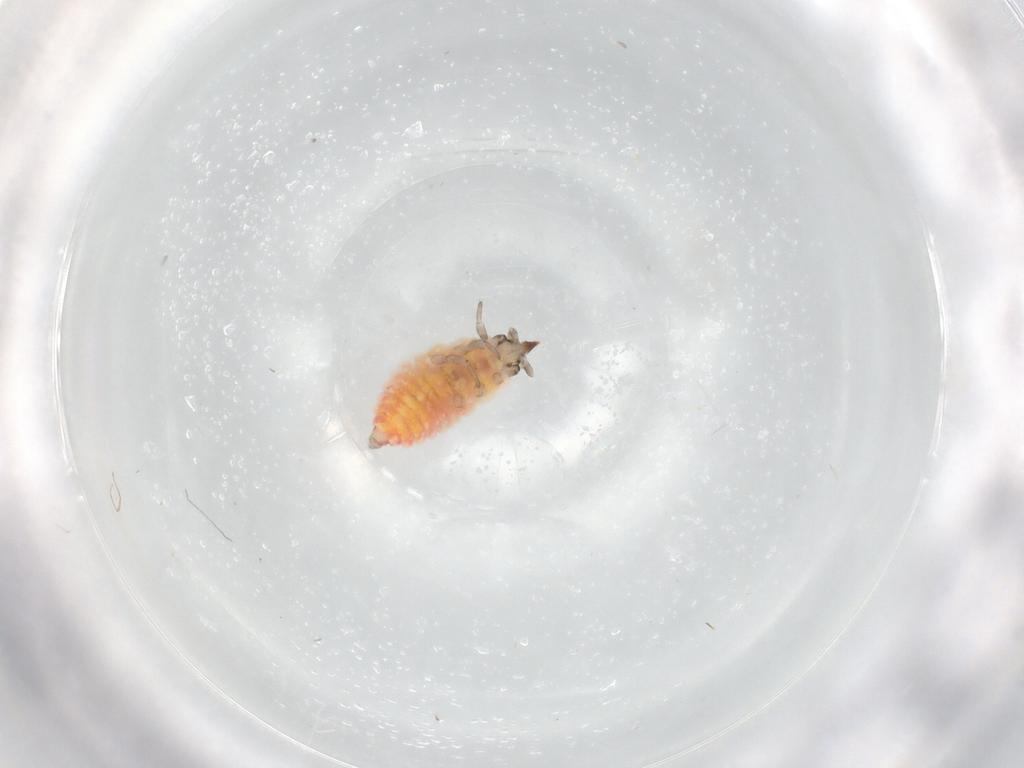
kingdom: Animalia
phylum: Arthropoda
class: Insecta
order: Neuroptera
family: Coniopterygidae
